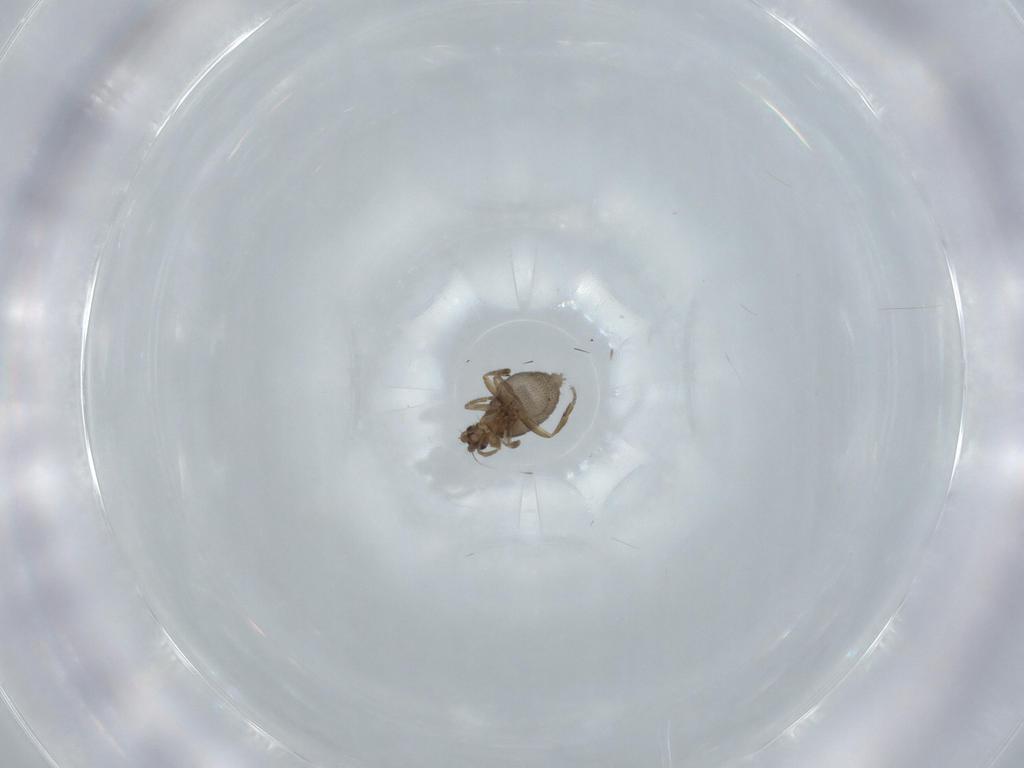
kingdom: Animalia
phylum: Arthropoda
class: Insecta
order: Diptera
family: Phoridae
